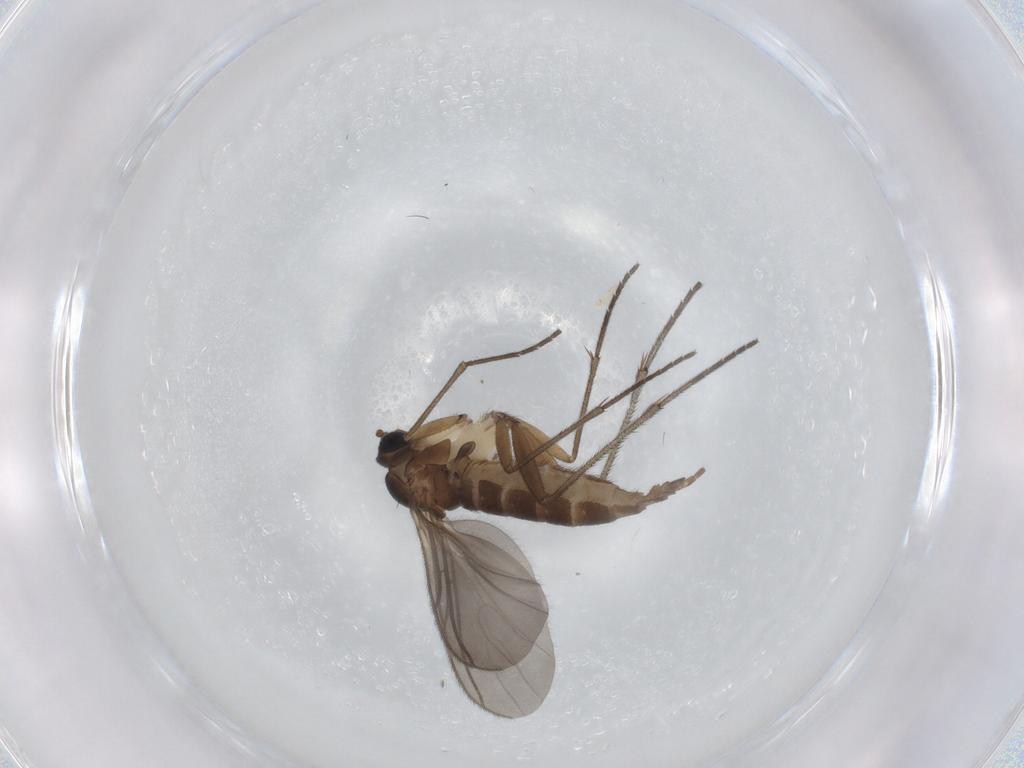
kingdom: Animalia
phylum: Arthropoda
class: Insecta
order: Diptera
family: Sciaridae
